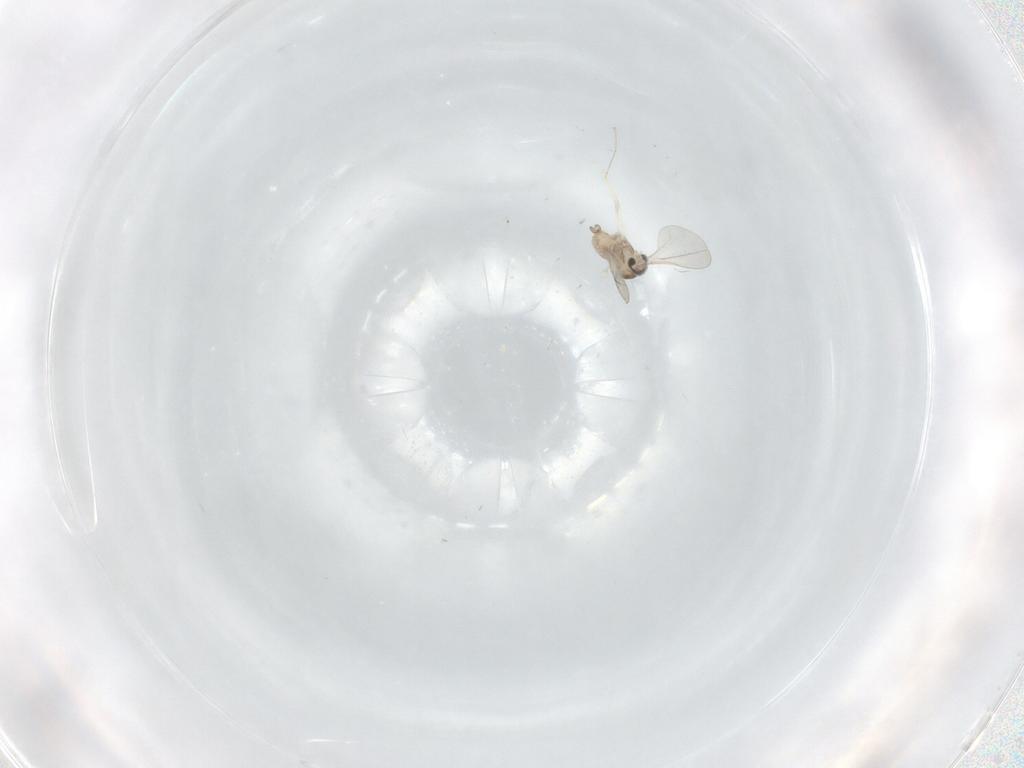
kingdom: Animalia
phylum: Arthropoda
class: Insecta
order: Diptera
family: Cecidomyiidae
